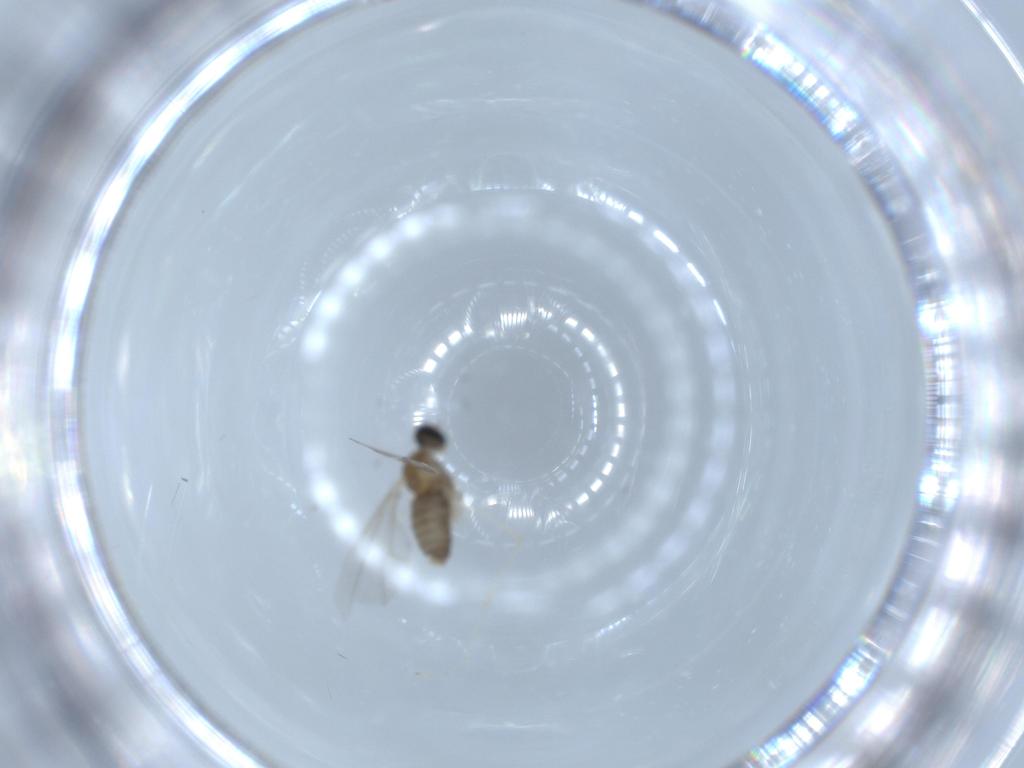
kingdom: Animalia
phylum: Arthropoda
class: Insecta
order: Diptera
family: Cecidomyiidae
